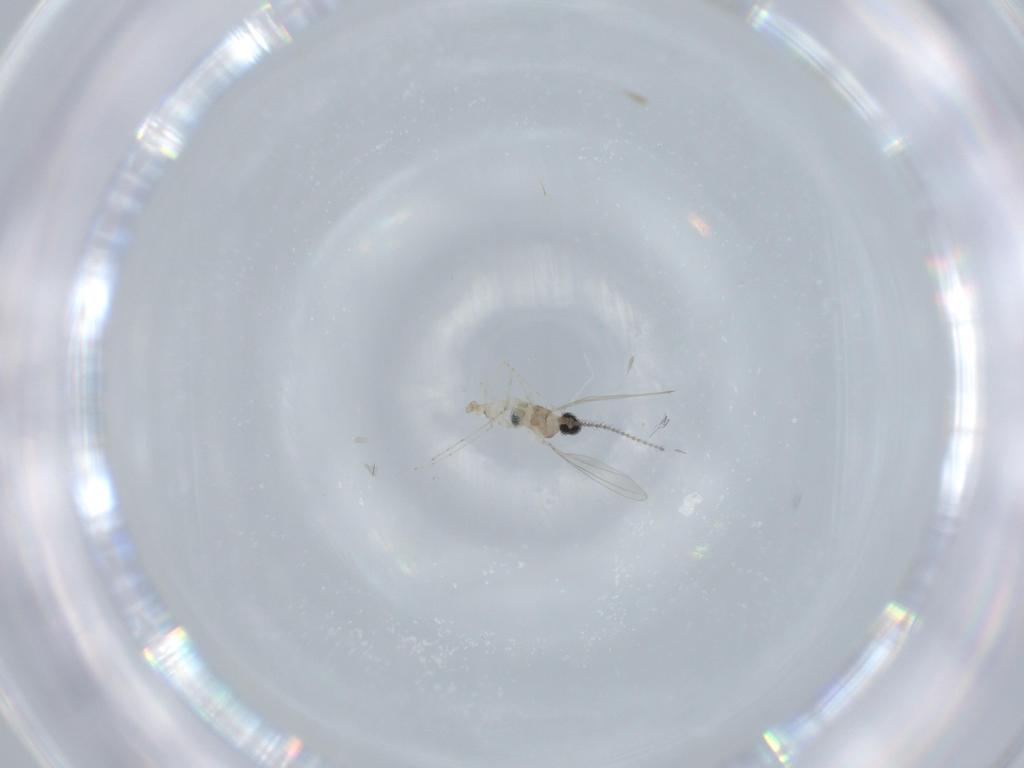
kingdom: Animalia
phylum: Arthropoda
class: Insecta
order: Diptera
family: Cecidomyiidae
